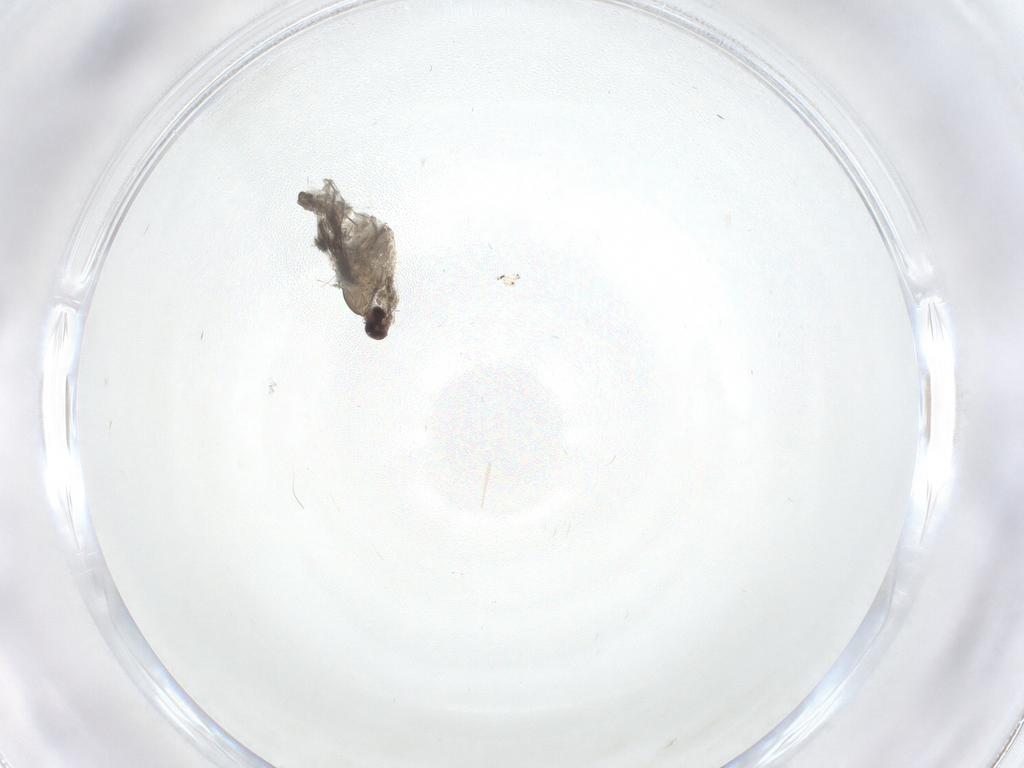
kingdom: Animalia
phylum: Arthropoda
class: Insecta
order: Diptera
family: Cecidomyiidae
